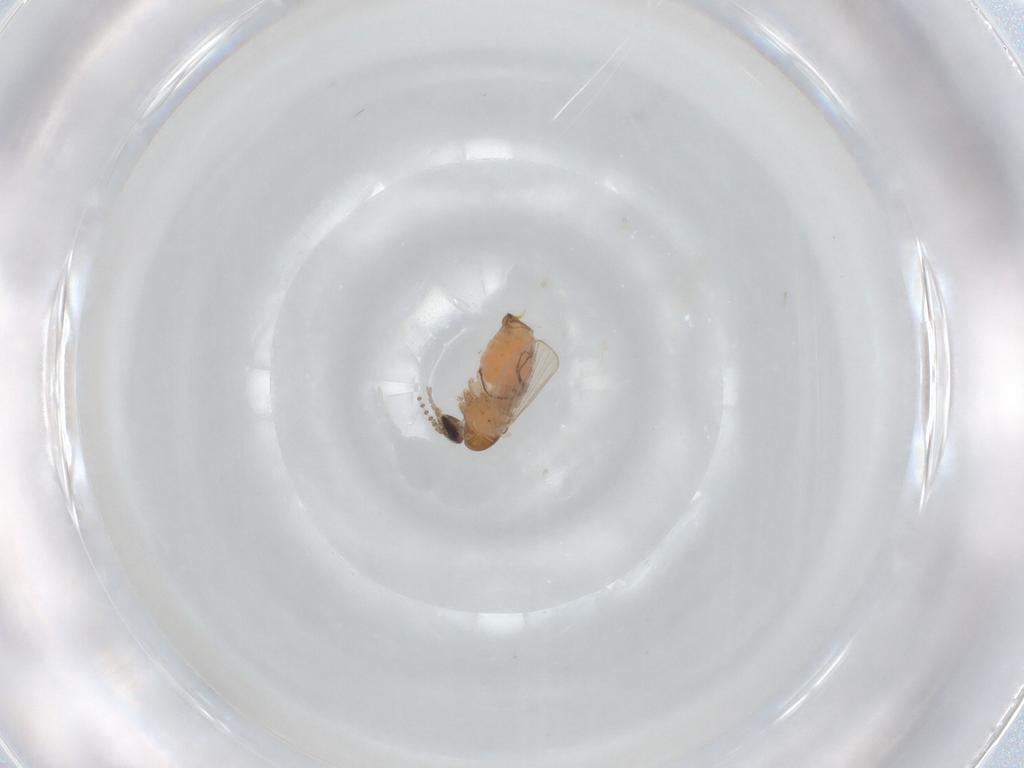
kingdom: Animalia
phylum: Arthropoda
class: Insecta
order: Diptera
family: Psychodidae
